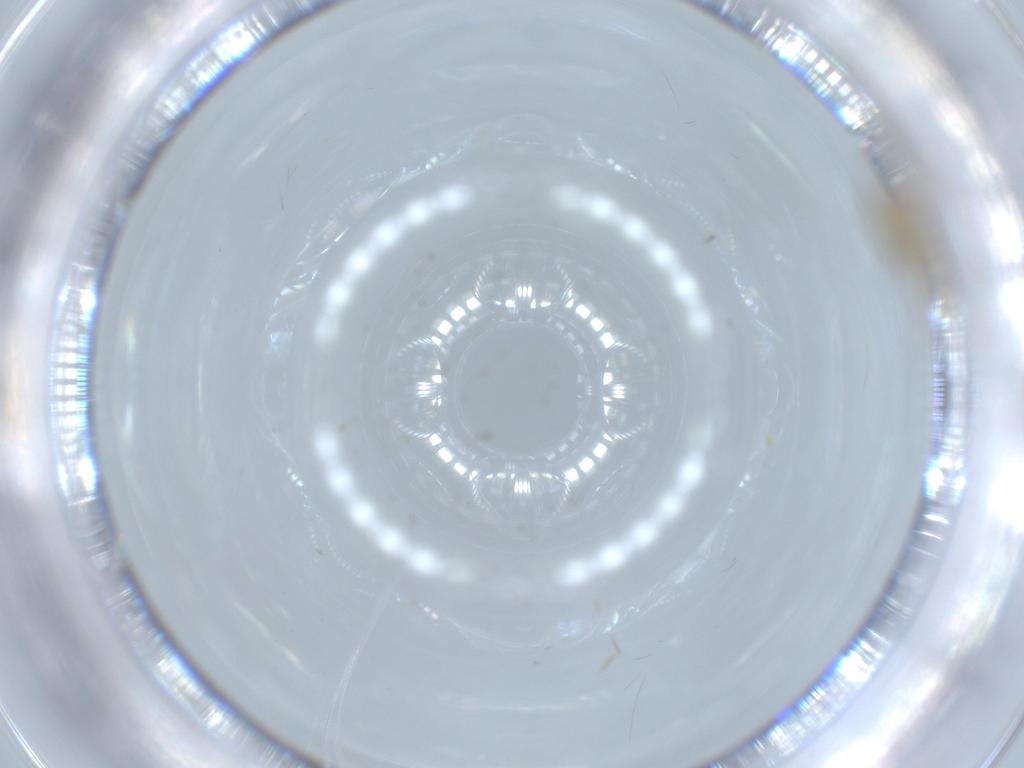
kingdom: Animalia
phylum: Arthropoda
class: Insecta
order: Diptera
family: Cecidomyiidae
